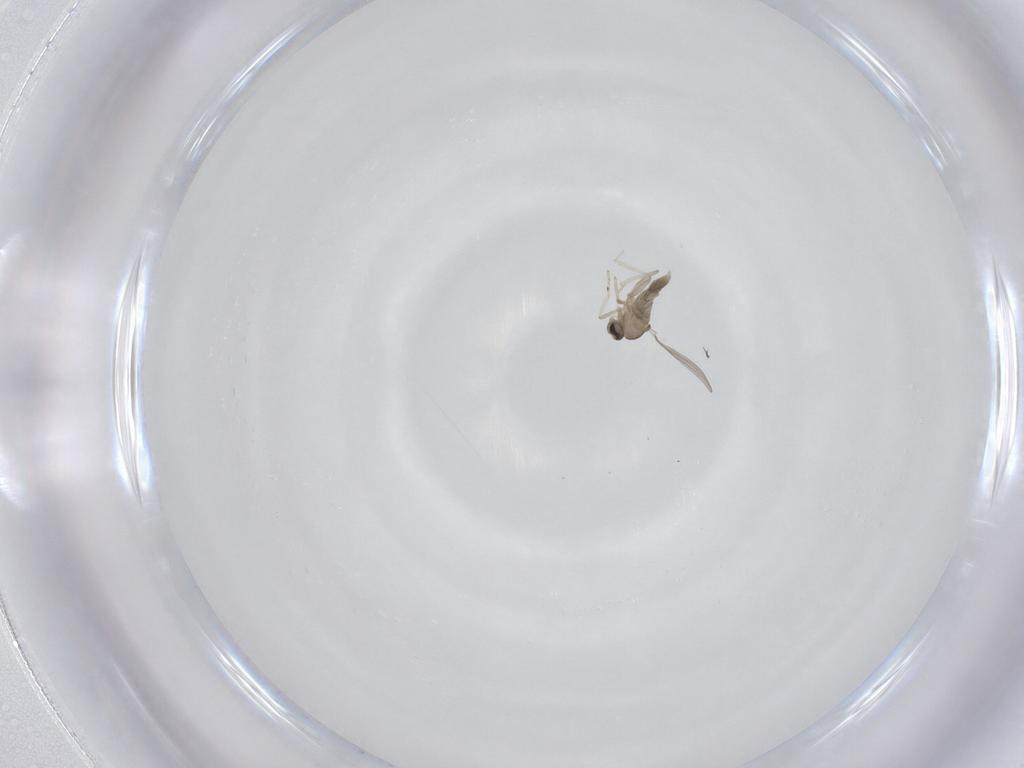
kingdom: Animalia
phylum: Arthropoda
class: Insecta
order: Diptera
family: Cecidomyiidae
